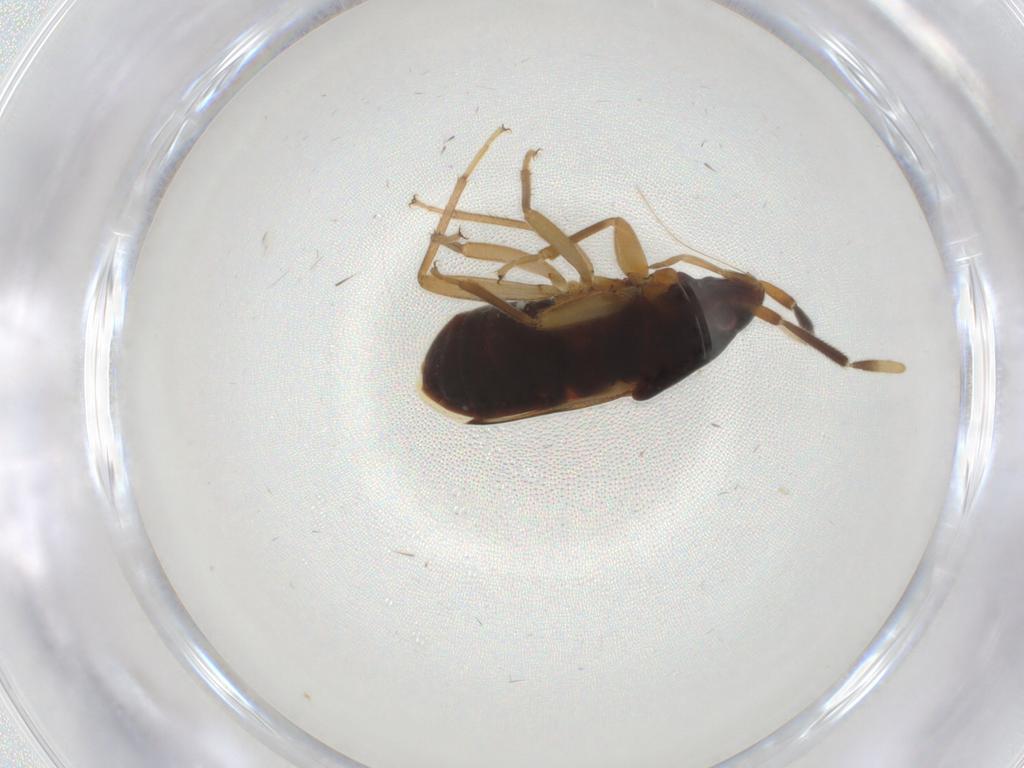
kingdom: Animalia
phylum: Arthropoda
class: Insecta
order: Hemiptera
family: Rhyparochromidae
